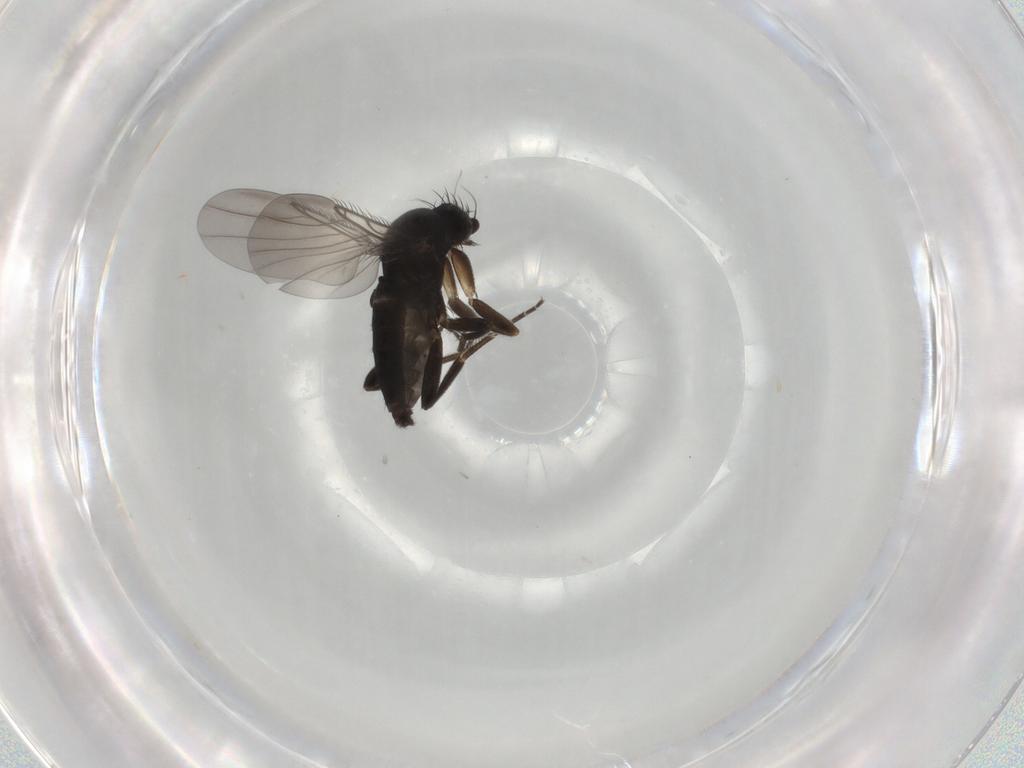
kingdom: Animalia
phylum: Arthropoda
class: Insecta
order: Diptera
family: Phoridae
